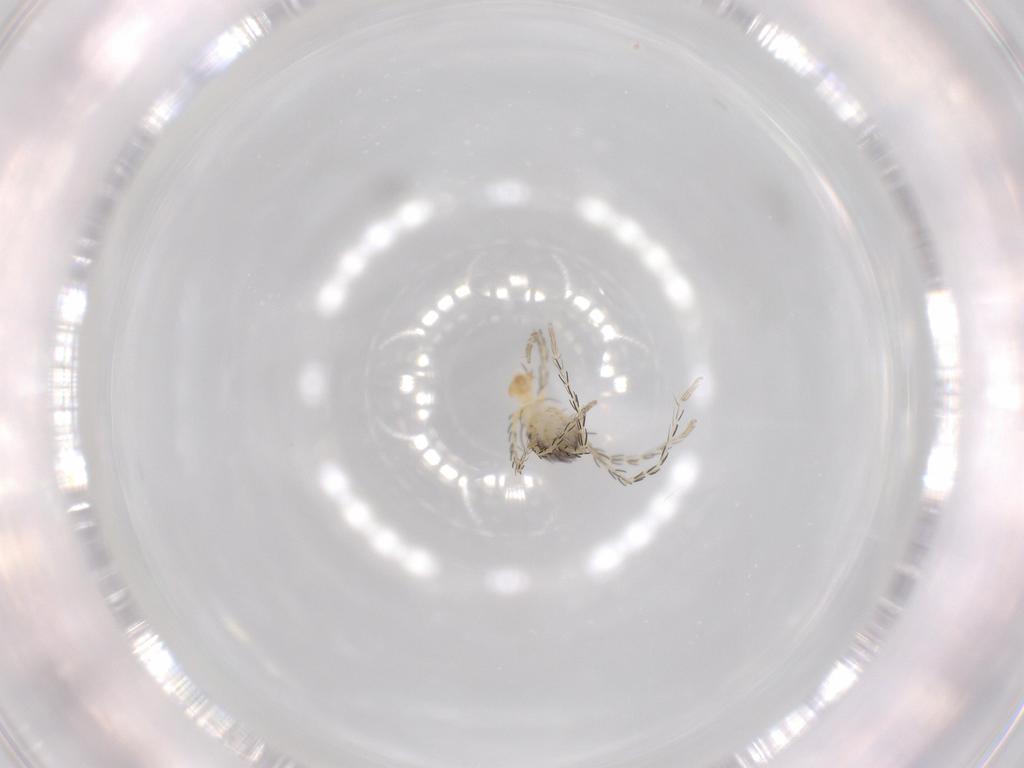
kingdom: Animalia
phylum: Arthropoda
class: Arachnida
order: Trombidiformes
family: Erythraeidae
